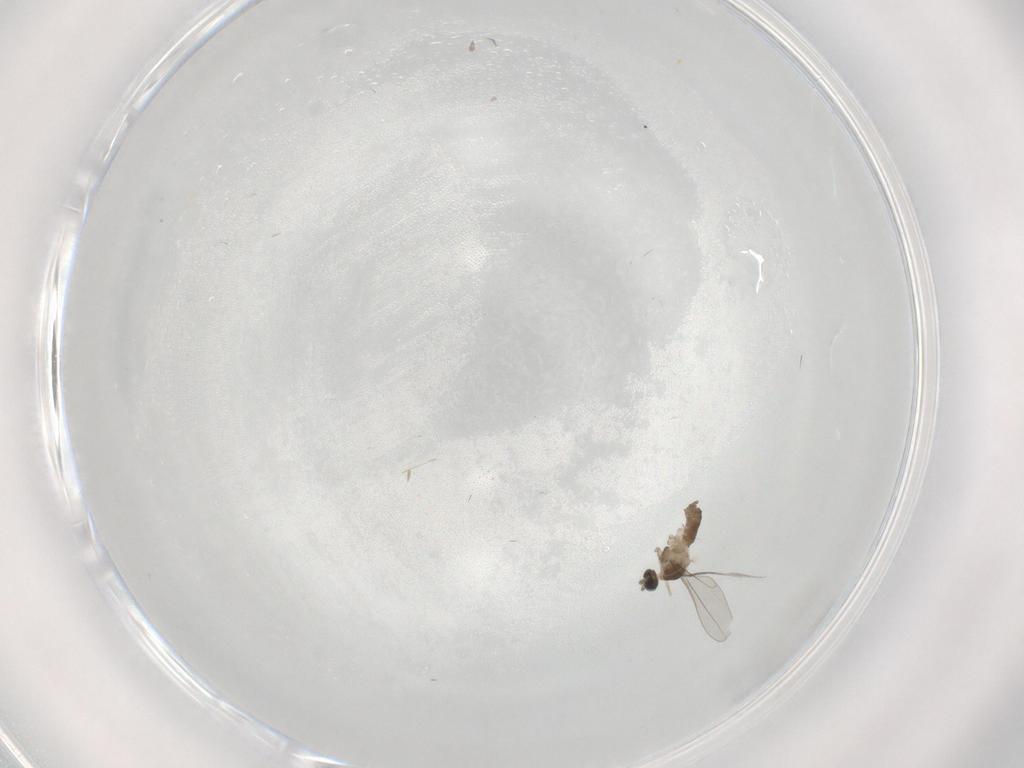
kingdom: Animalia
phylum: Arthropoda
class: Insecta
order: Diptera
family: Cecidomyiidae
